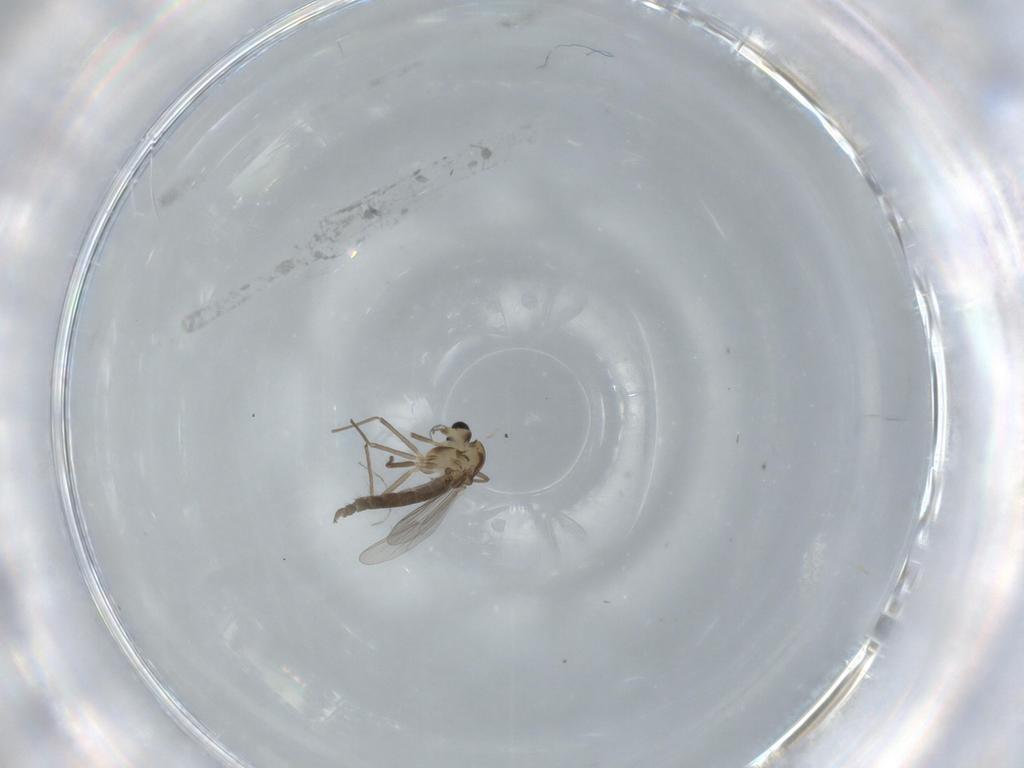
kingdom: Animalia
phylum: Arthropoda
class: Insecta
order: Diptera
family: Chironomidae
